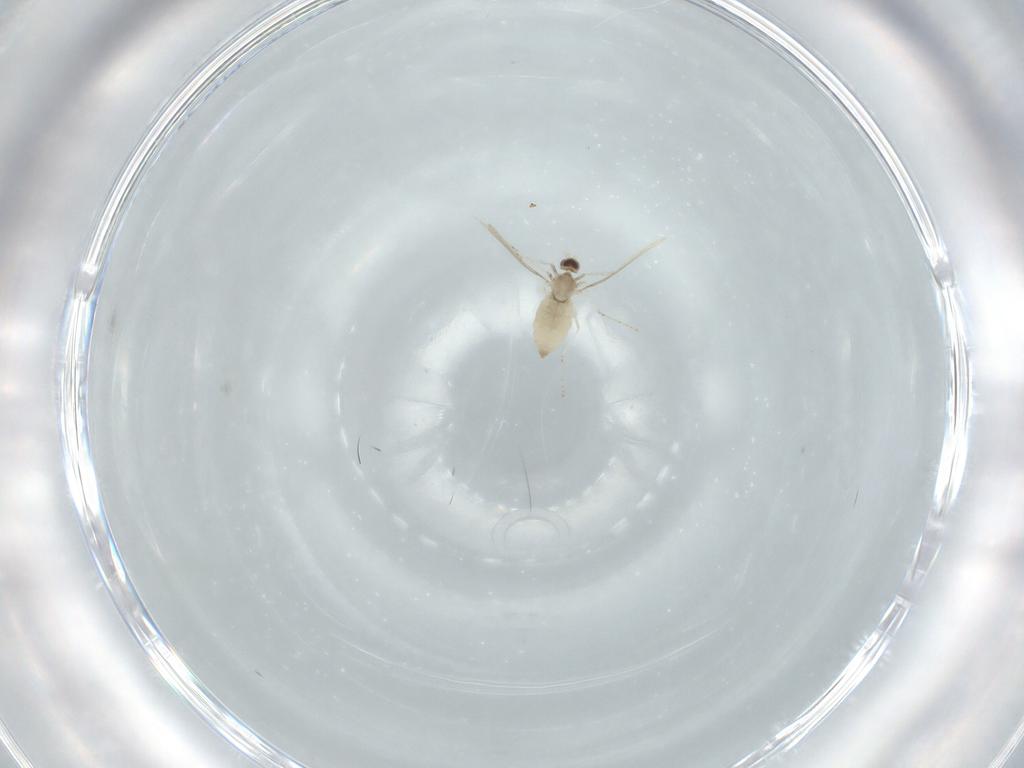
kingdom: Animalia
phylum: Arthropoda
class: Insecta
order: Diptera
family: Cecidomyiidae
